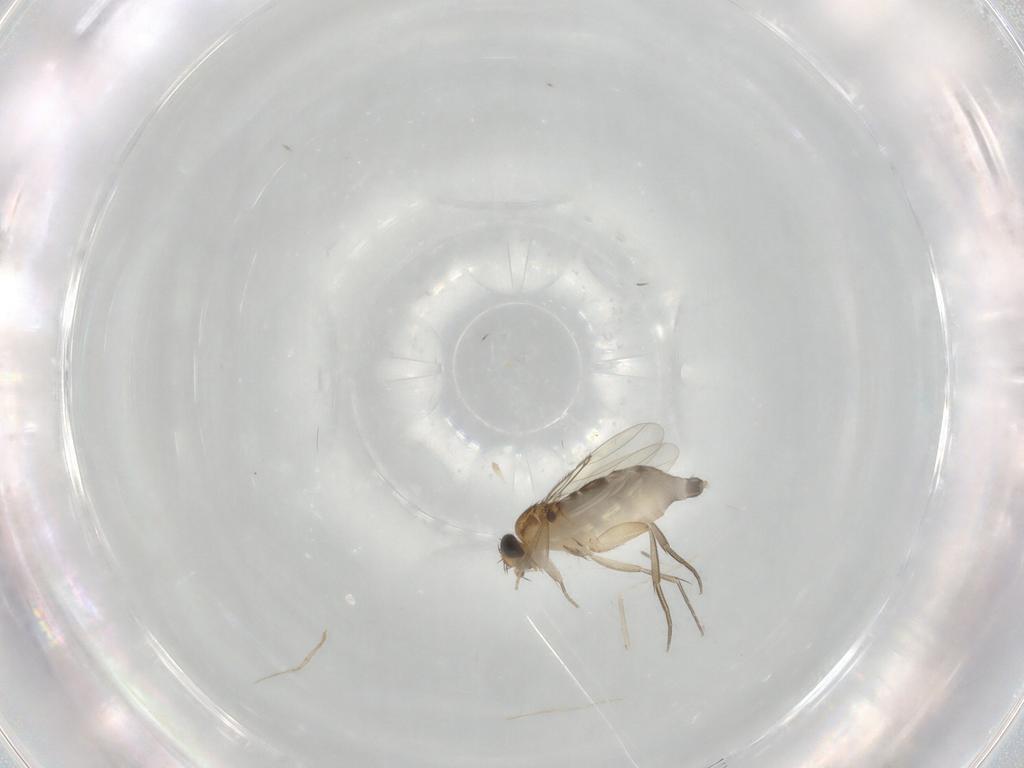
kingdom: Animalia
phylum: Arthropoda
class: Insecta
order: Diptera
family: Phoridae
